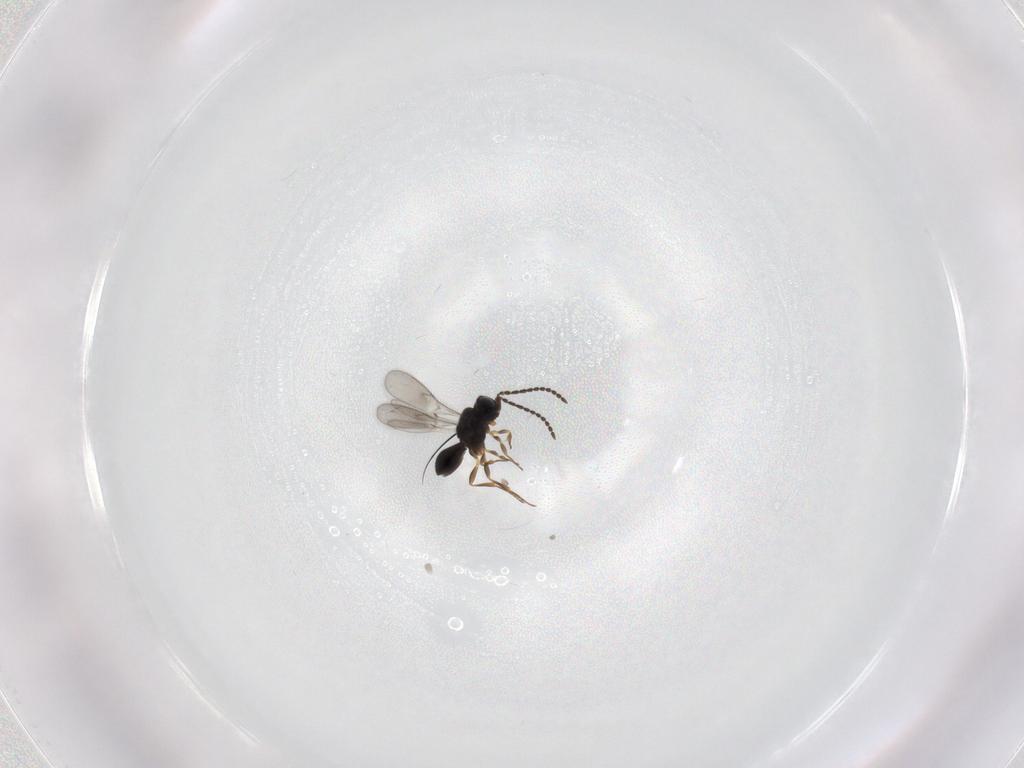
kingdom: Animalia
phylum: Arthropoda
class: Insecta
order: Hymenoptera
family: Scelionidae
